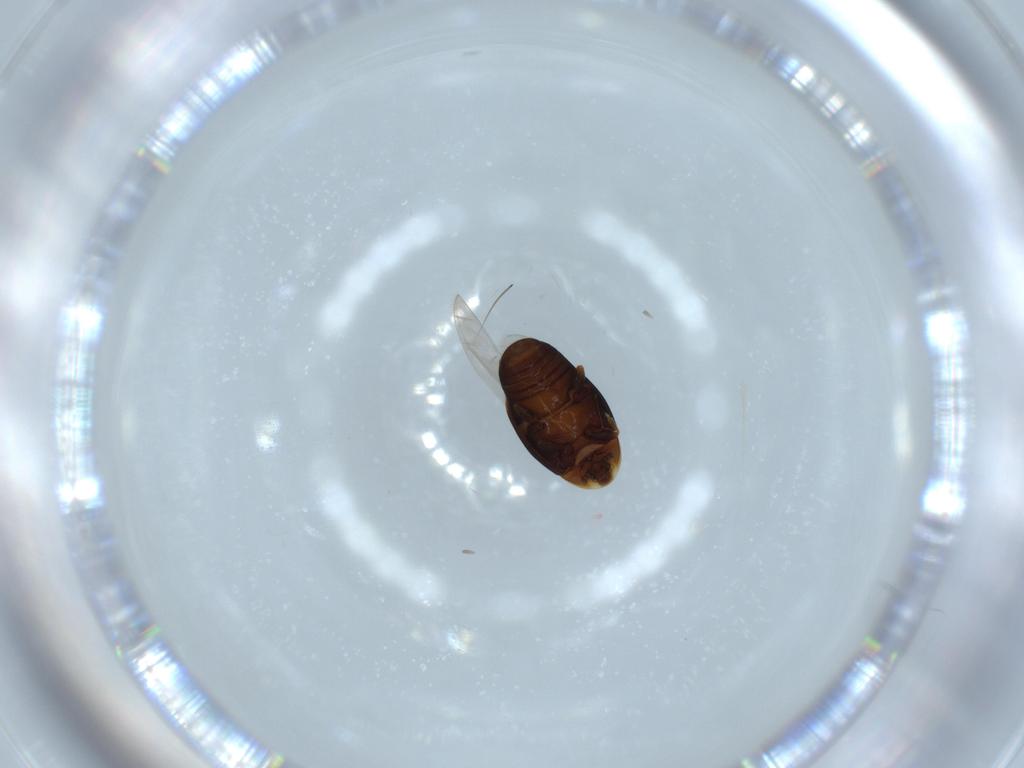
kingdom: Animalia
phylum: Arthropoda
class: Insecta
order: Coleoptera
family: Corylophidae
